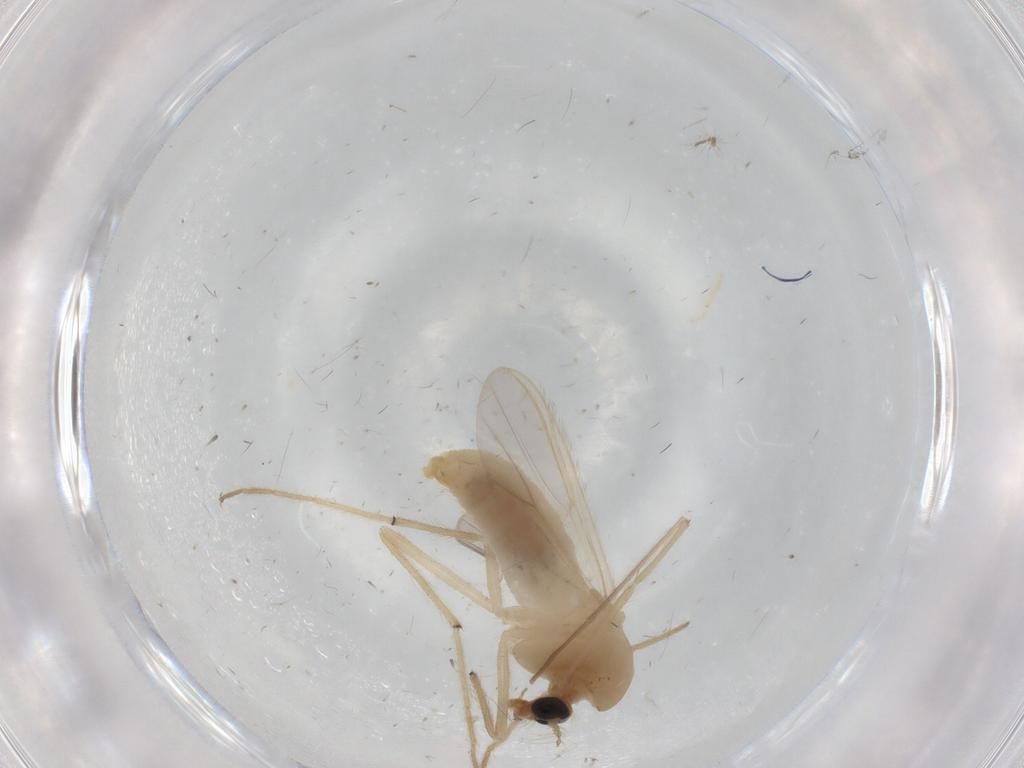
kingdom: Animalia
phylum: Arthropoda
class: Insecta
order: Diptera
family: Chironomidae
